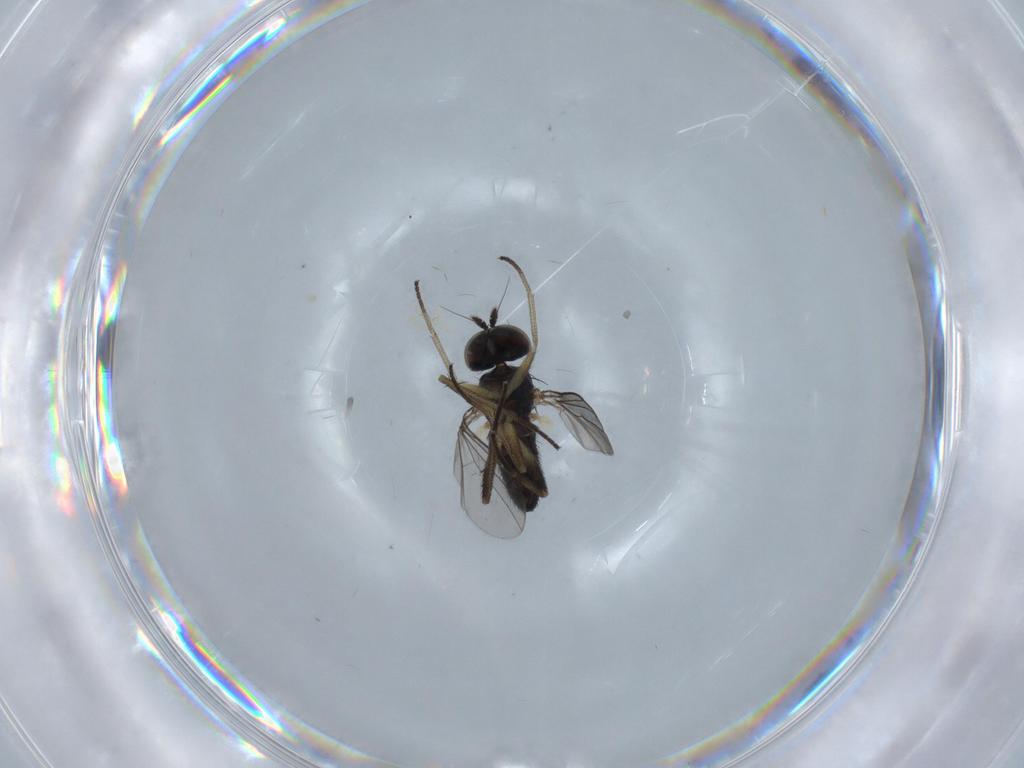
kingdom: Animalia
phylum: Arthropoda
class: Insecta
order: Diptera
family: Dolichopodidae
